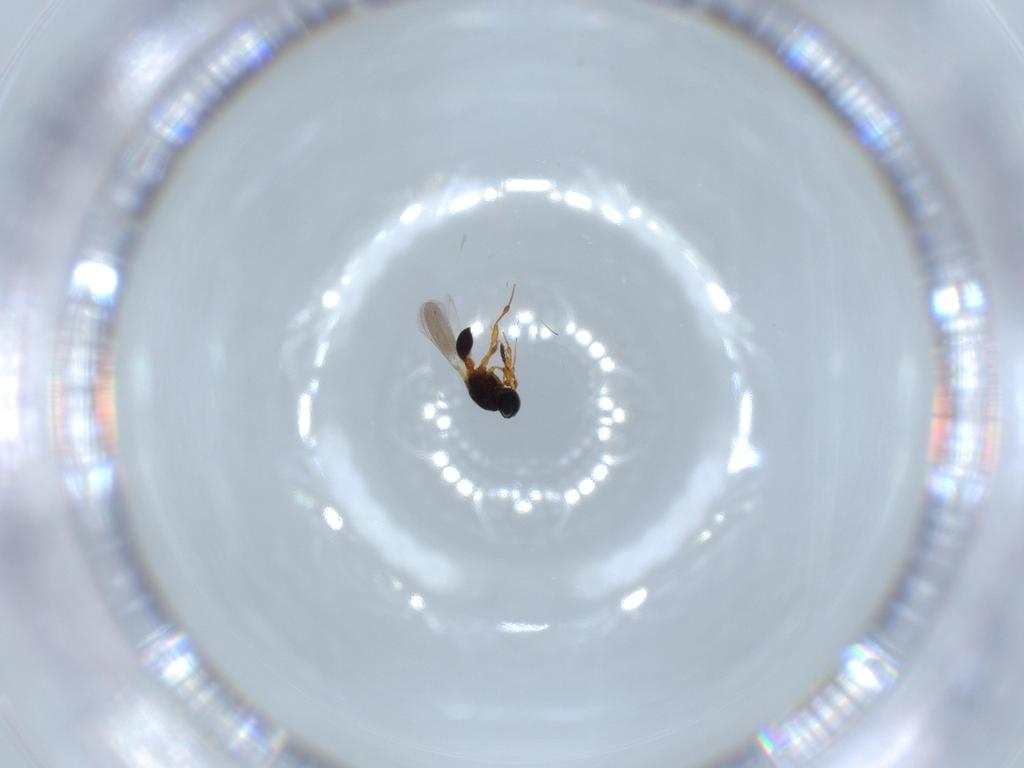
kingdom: Animalia
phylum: Arthropoda
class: Insecta
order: Hymenoptera
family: Platygastridae
